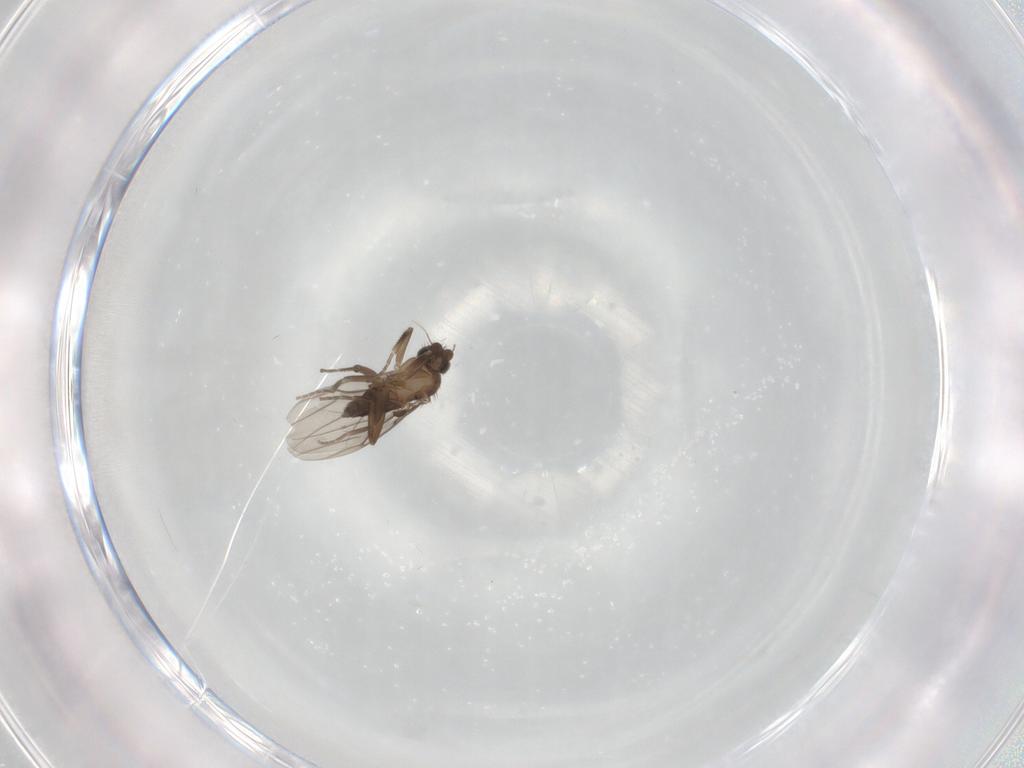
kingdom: Animalia
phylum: Arthropoda
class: Insecta
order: Diptera
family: Phoridae
